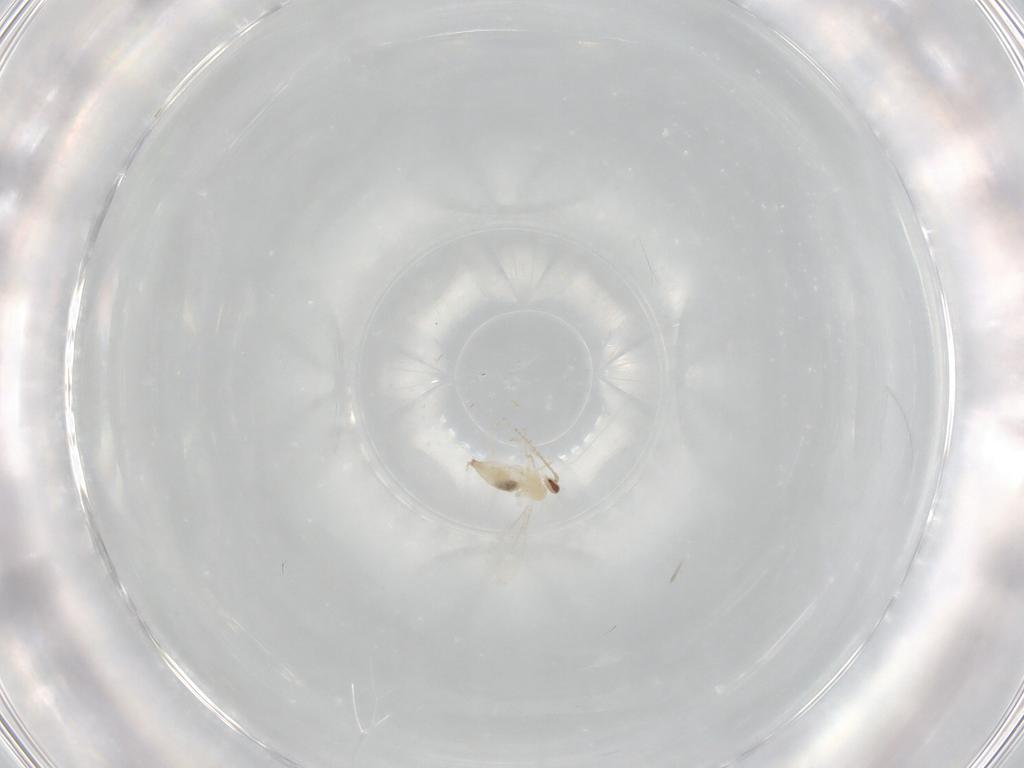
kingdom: Animalia
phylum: Arthropoda
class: Insecta
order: Diptera
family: Cecidomyiidae
